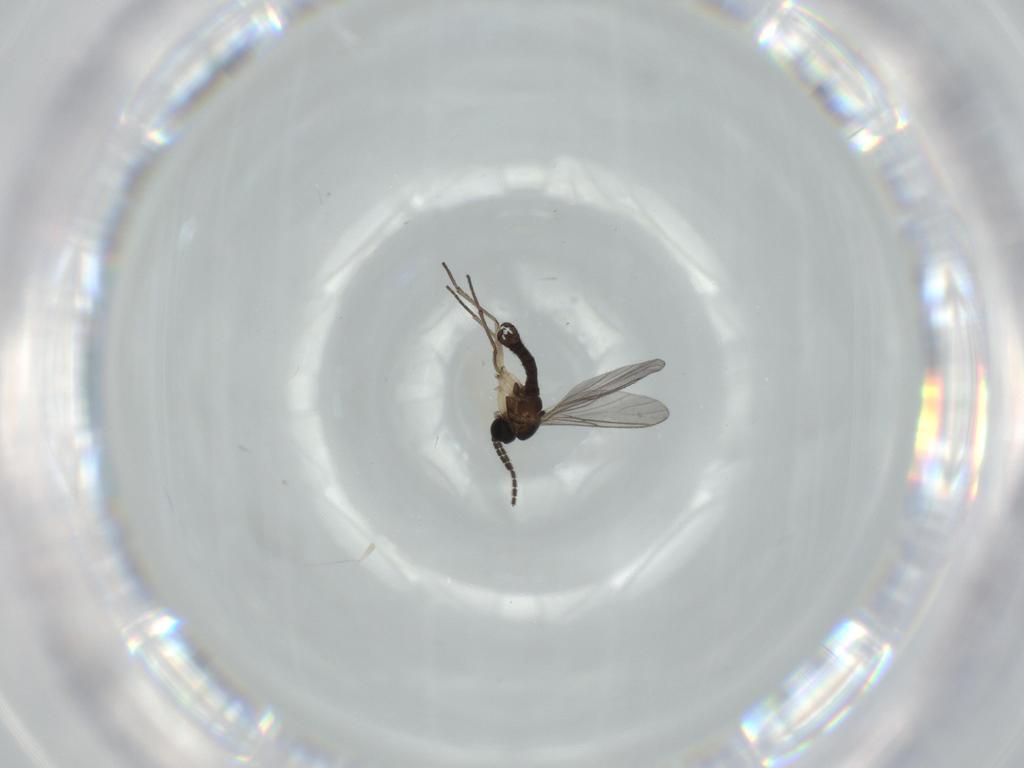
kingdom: Animalia
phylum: Arthropoda
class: Insecta
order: Diptera
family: Sciaridae
